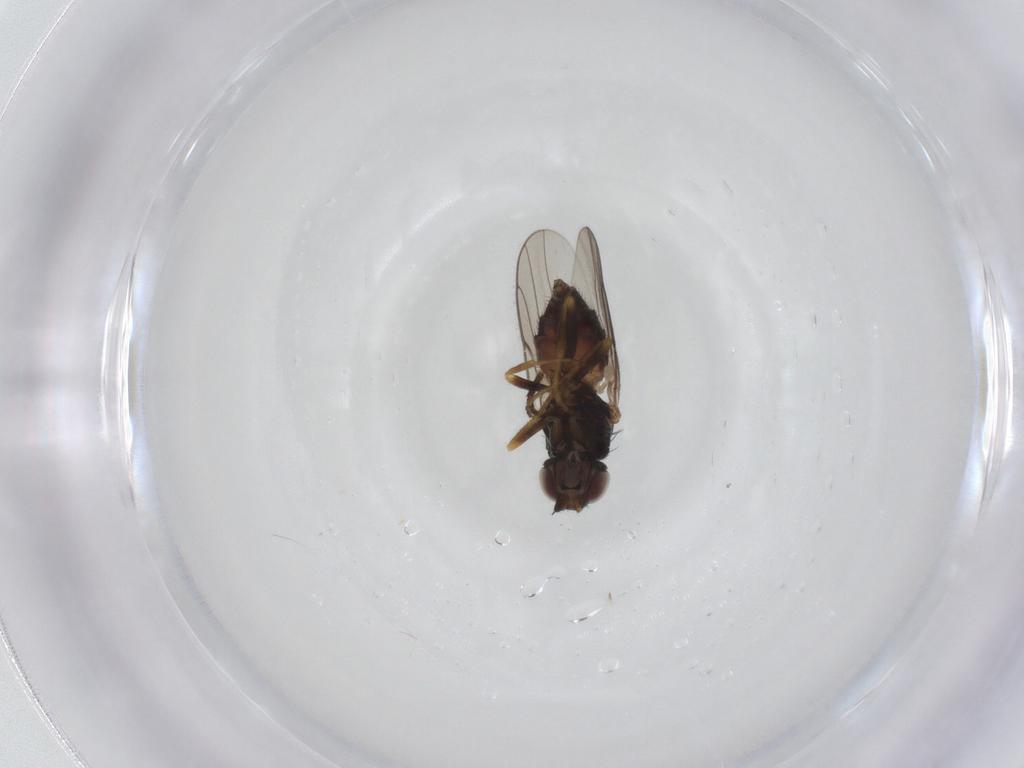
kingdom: Animalia
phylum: Arthropoda
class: Insecta
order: Diptera
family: Chloropidae
